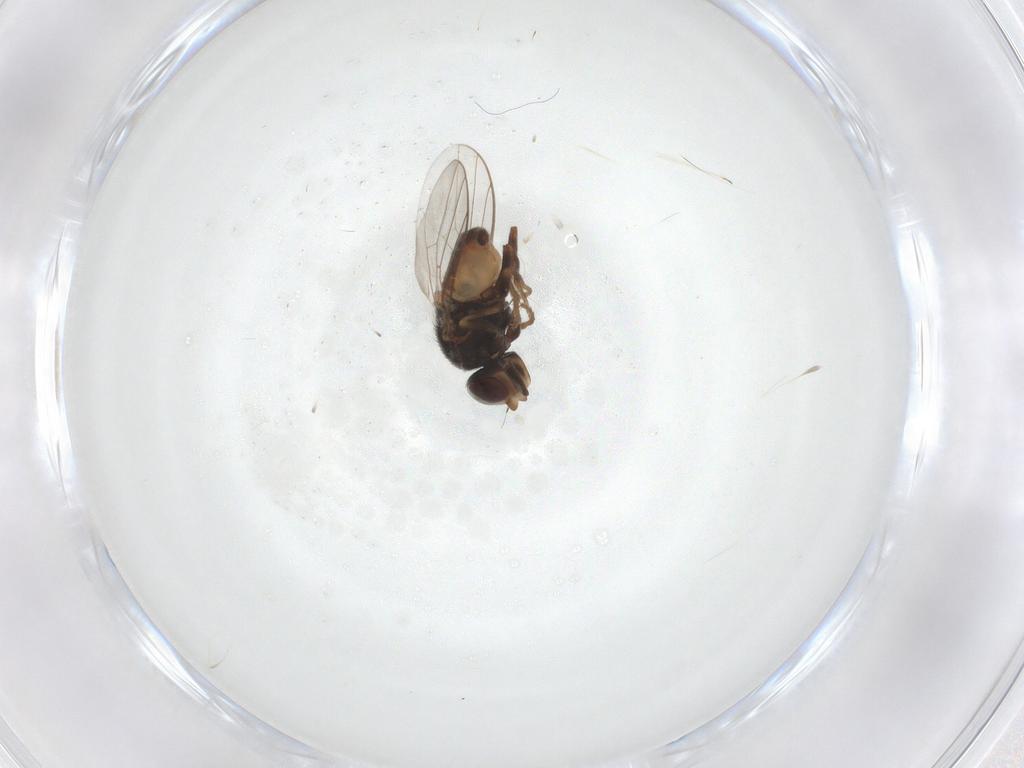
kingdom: Animalia
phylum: Arthropoda
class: Insecta
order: Diptera
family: Chloropidae
